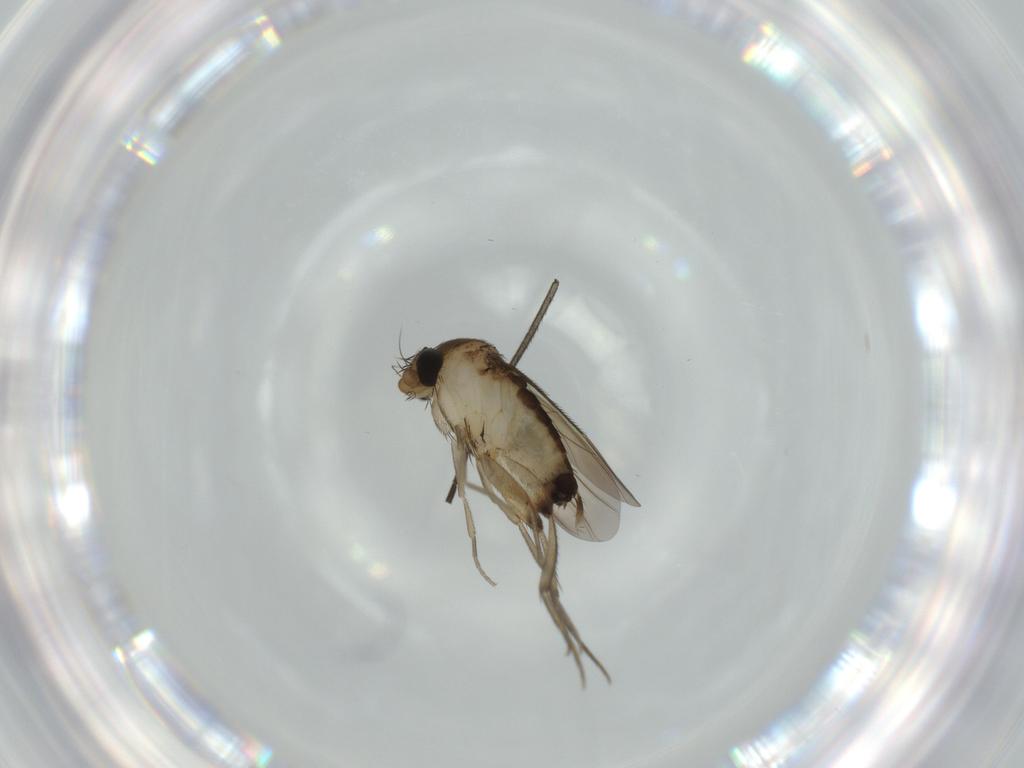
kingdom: Animalia
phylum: Arthropoda
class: Insecta
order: Diptera
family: Phoridae
